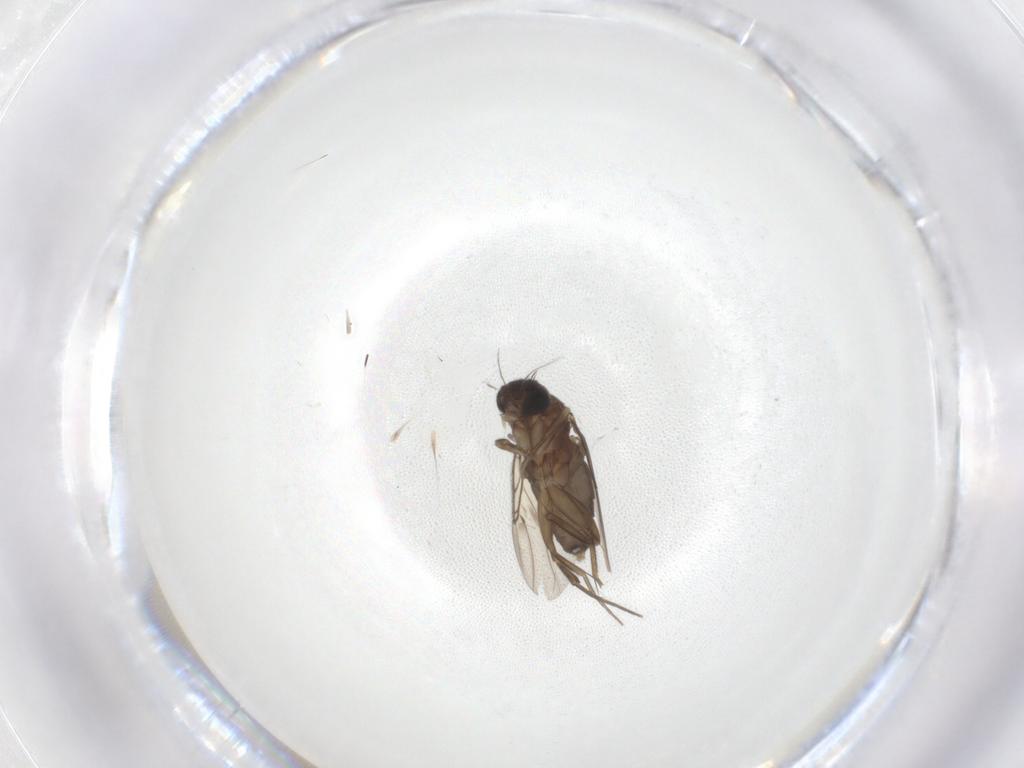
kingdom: Animalia
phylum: Arthropoda
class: Insecta
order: Diptera
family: Phoridae
